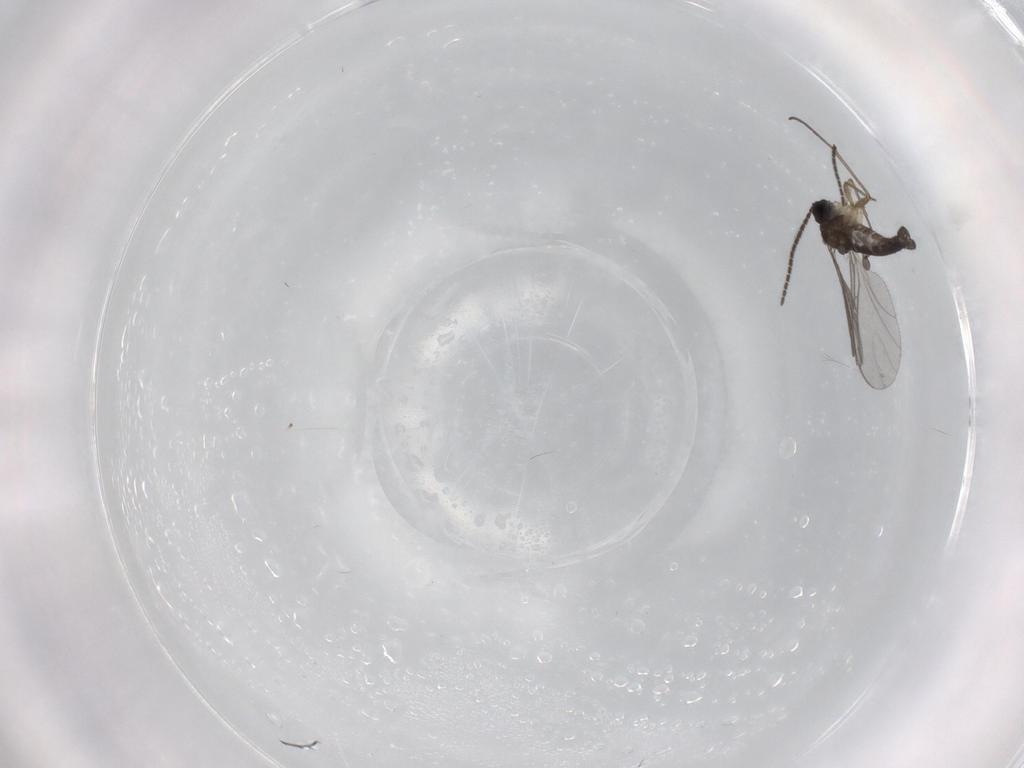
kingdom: Animalia
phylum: Arthropoda
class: Insecta
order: Diptera
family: Sciaridae
